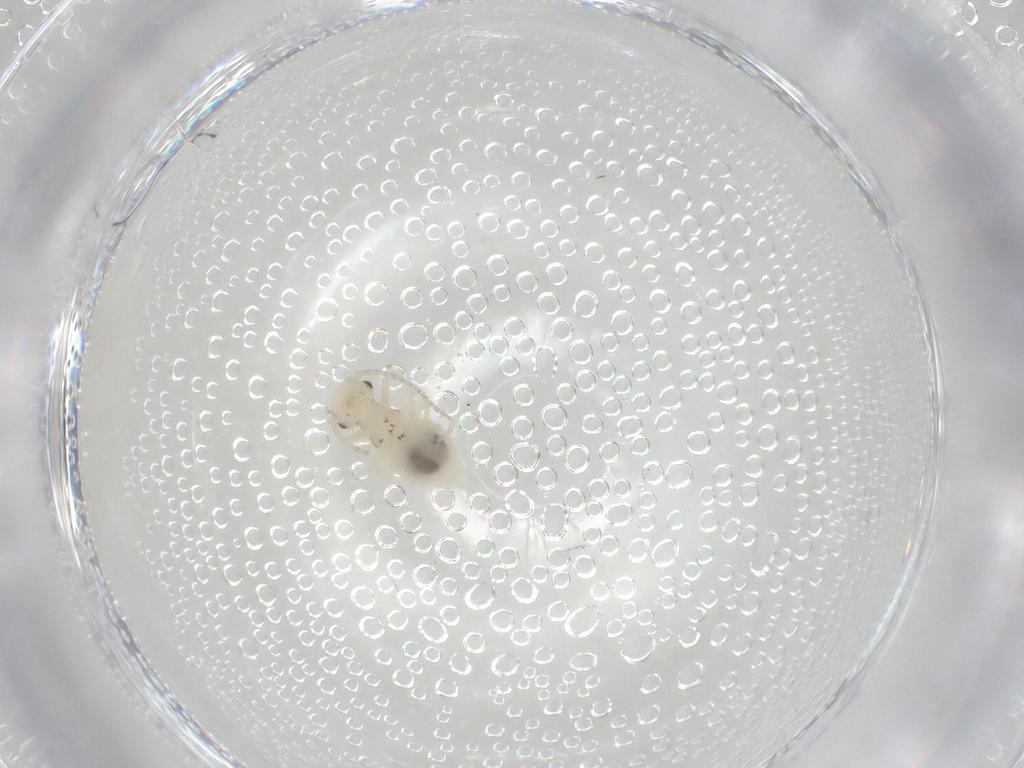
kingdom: Animalia
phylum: Arthropoda
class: Insecta
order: Psocodea
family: Amphipsocidae
